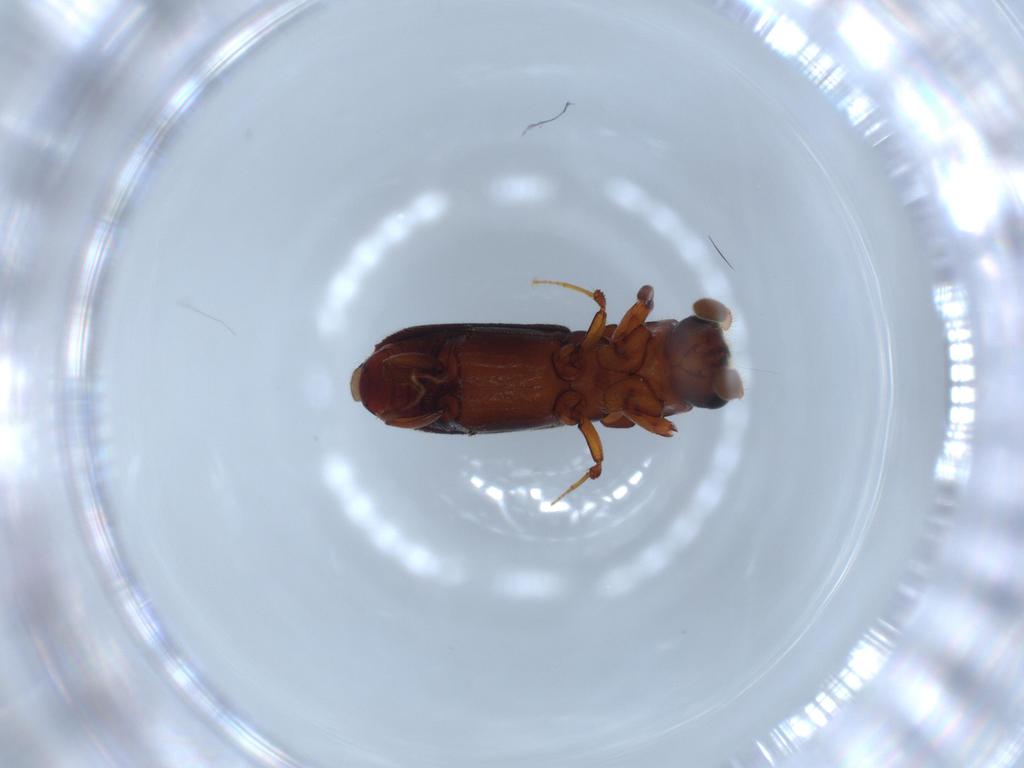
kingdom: Animalia
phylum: Arthropoda
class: Insecta
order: Coleoptera
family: Curculionidae
